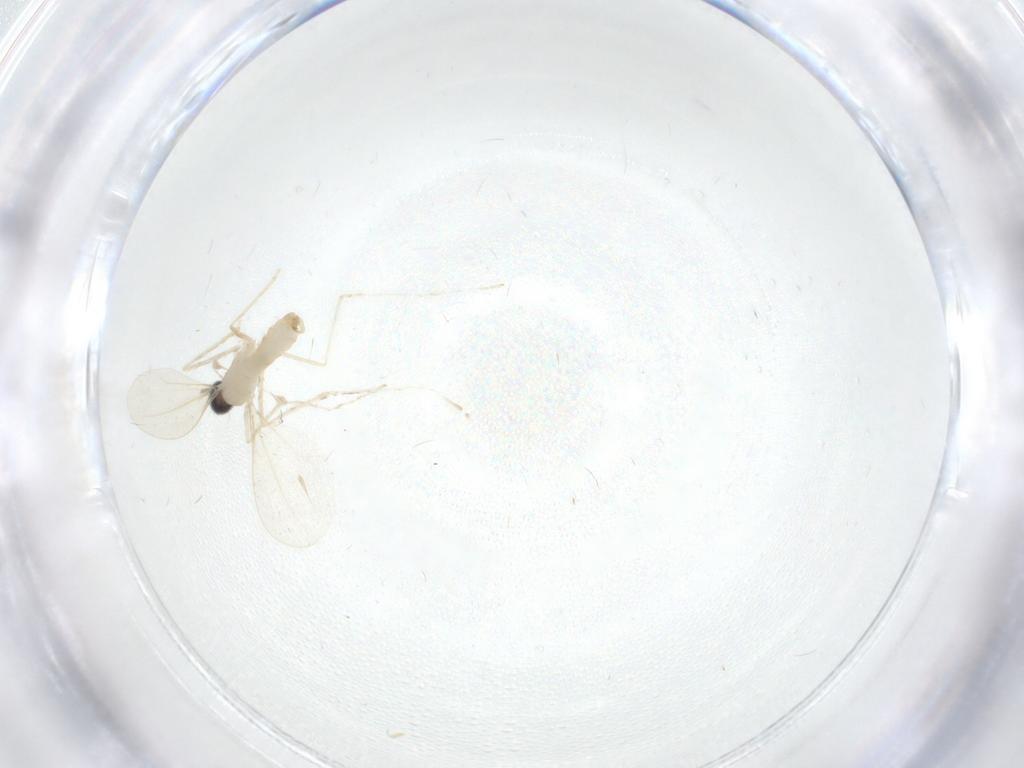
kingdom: Animalia
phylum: Arthropoda
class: Insecta
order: Diptera
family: Cecidomyiidae
